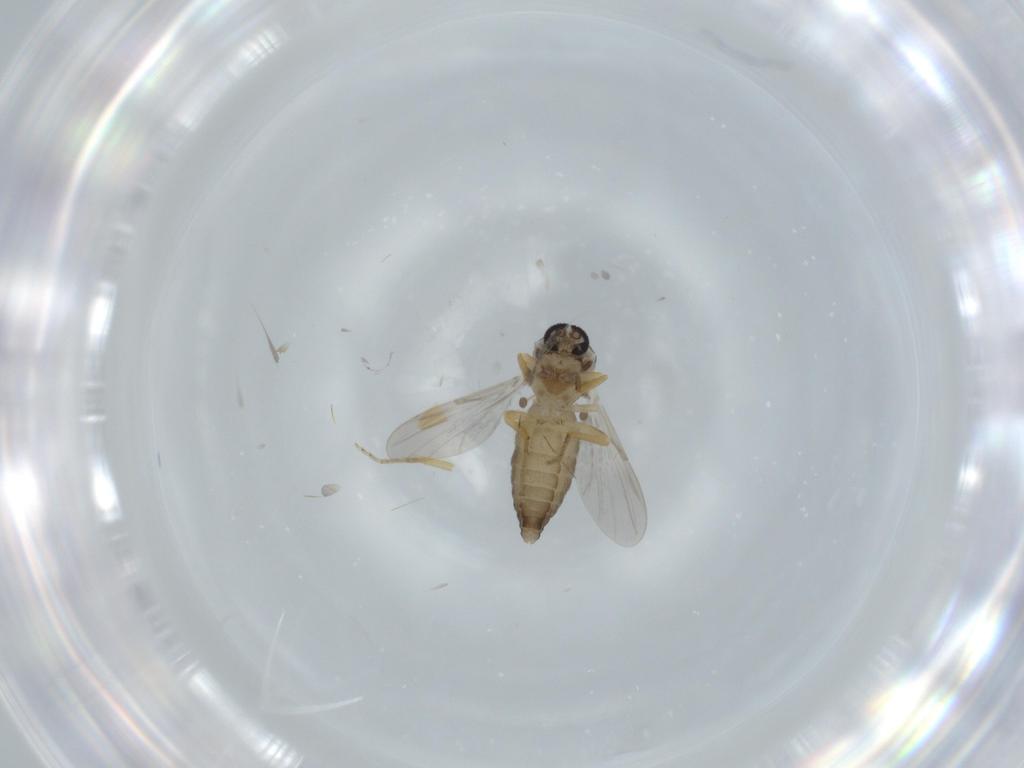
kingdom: Animalia
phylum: Arthropoda
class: Insecta
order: Diptera
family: Ceratopogonidae
